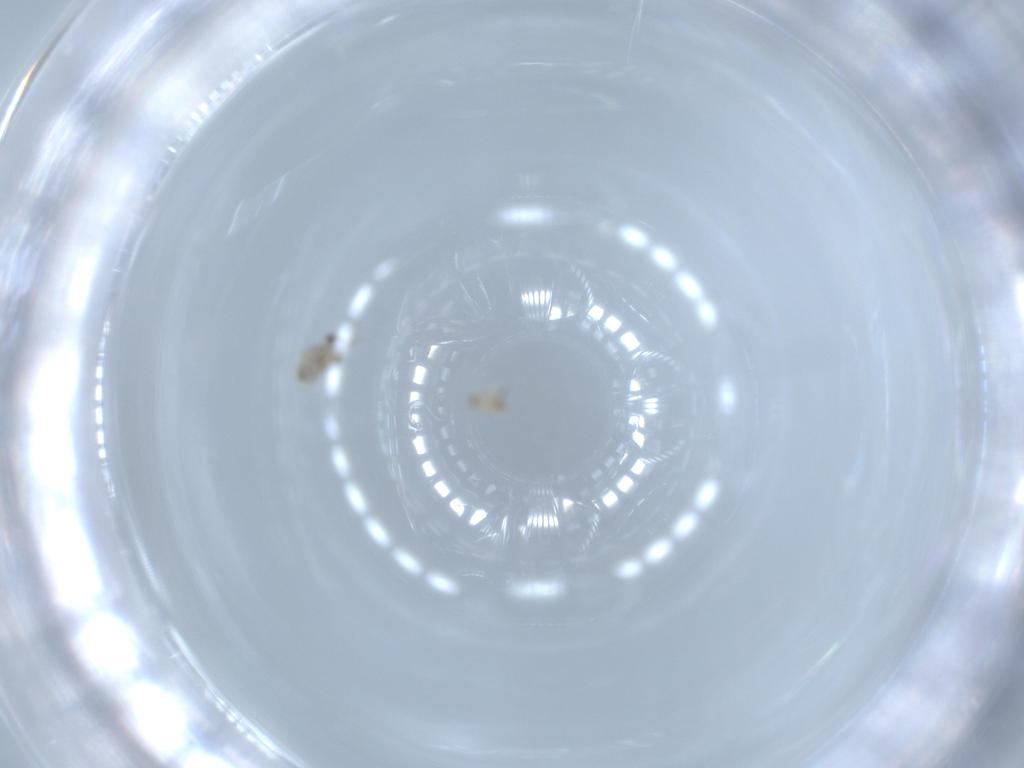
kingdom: Animalia
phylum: Arthropoda
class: Insecta
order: Diptera
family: Cecidomyiidae
